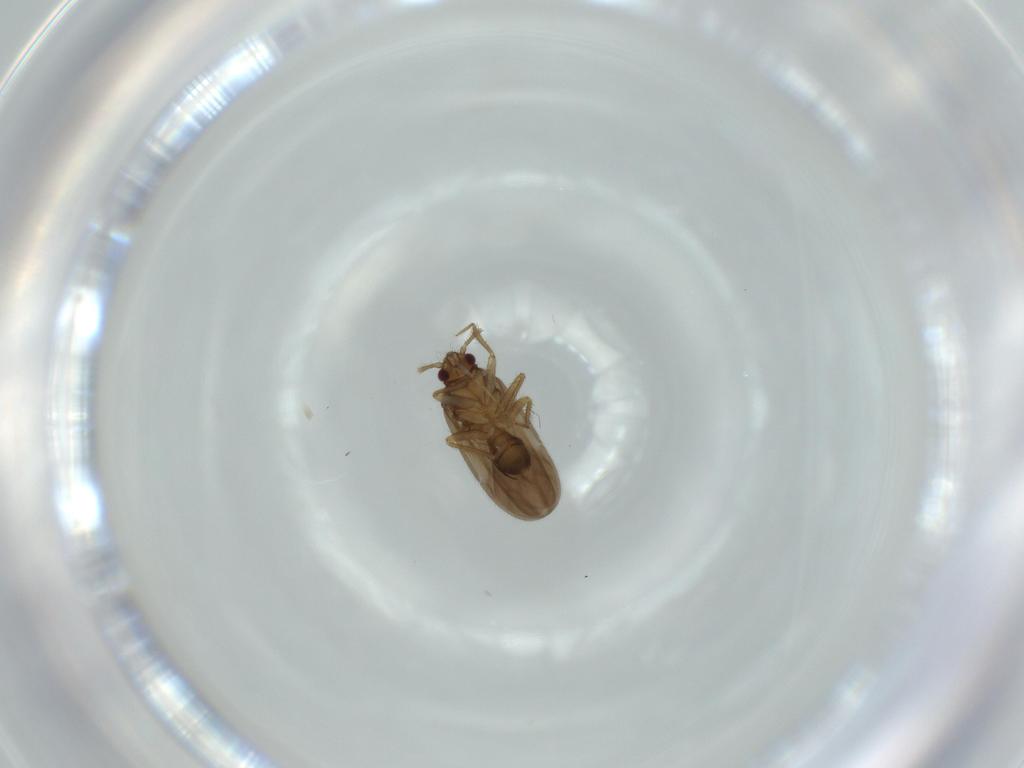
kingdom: Animalia
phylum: Arthropoda
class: Insecta
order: Hemiptera
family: Ceratocombidae
